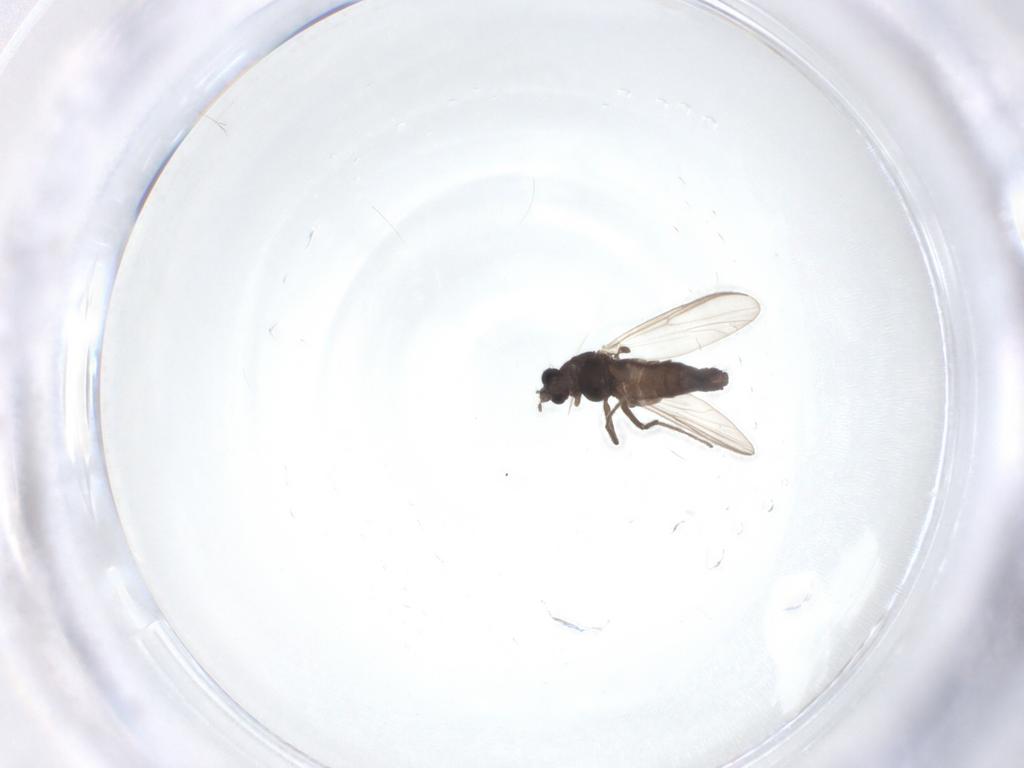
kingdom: Animalia
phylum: Arthropoda
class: Insecta
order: Diptera
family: Chironomidae
